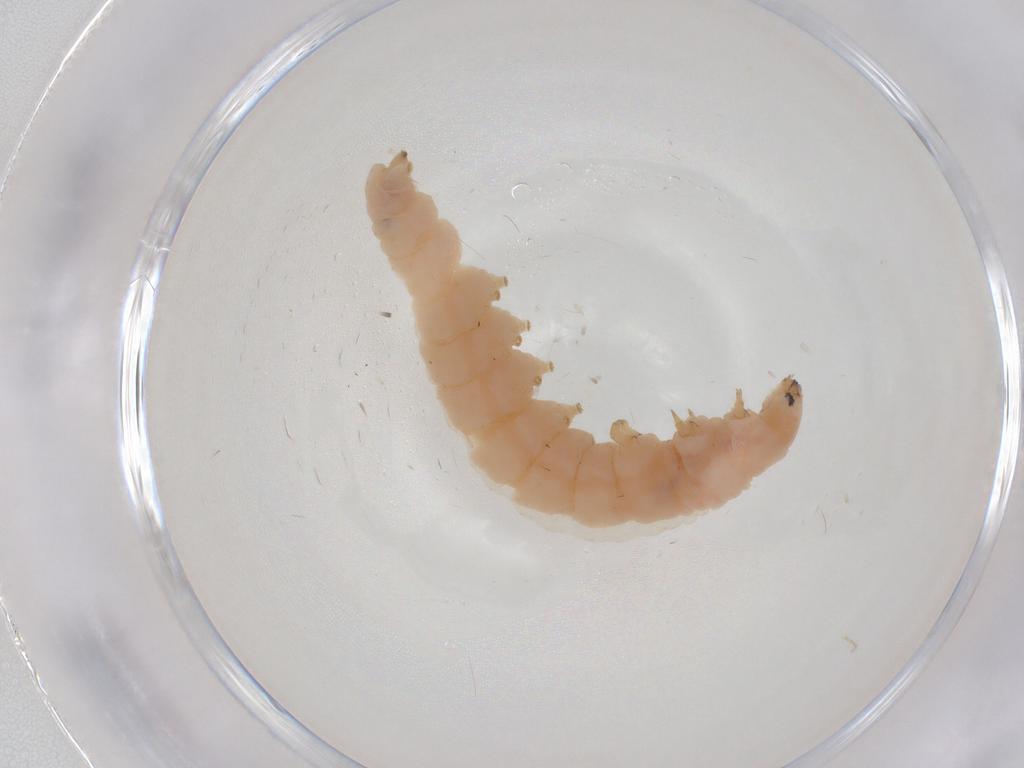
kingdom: Animalia
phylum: Arthropoda
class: Insecta
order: Lepidoptera
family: Gelechiidae
